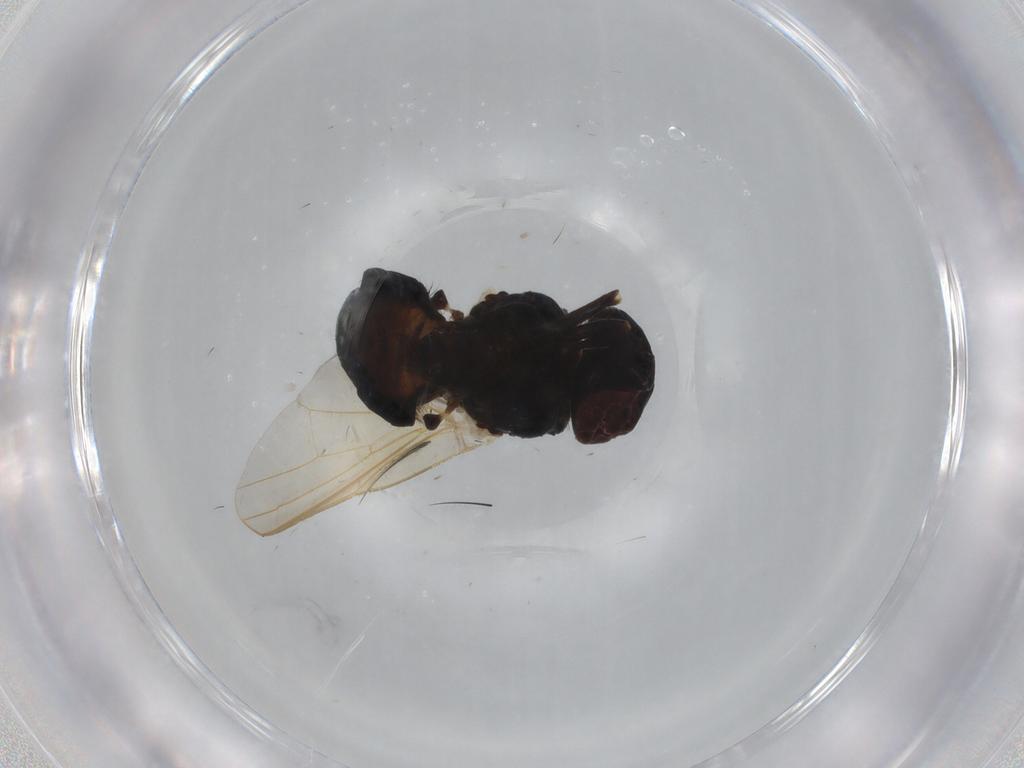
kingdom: Animalia
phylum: Arthropoda
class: Insecta
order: Diptera
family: Lonchaeidae
